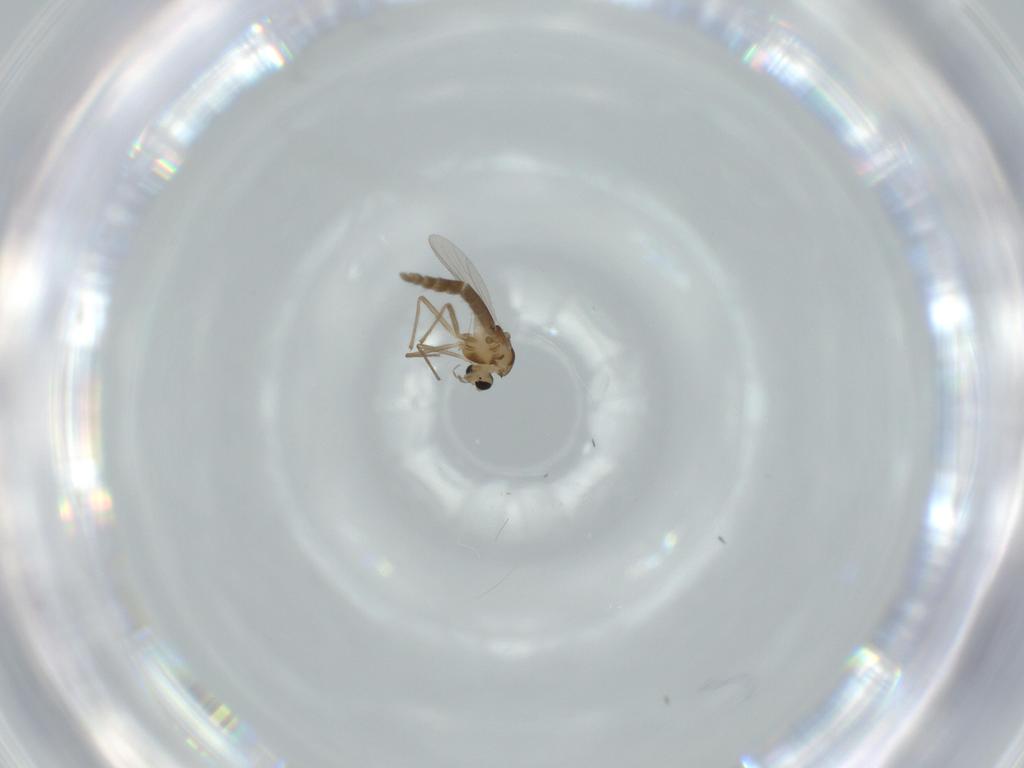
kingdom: Animalia
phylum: Arthropoda
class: Insecta
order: Diptera
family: Chironomidae
